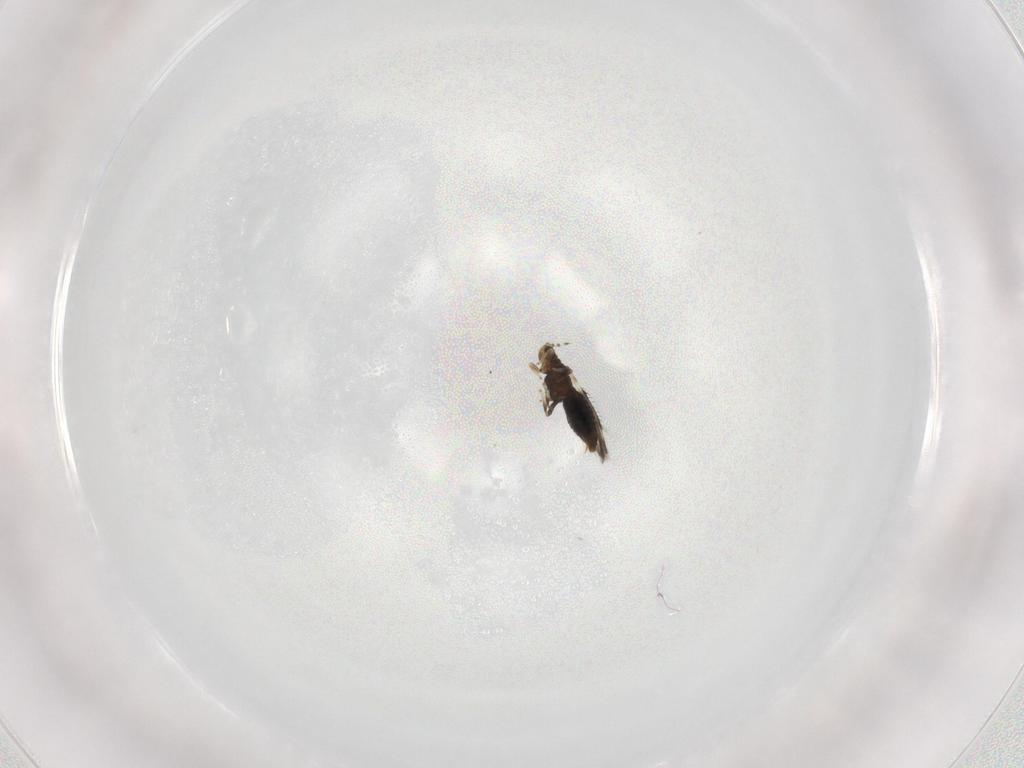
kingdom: Animalia
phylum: Arthropoda
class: Insecta
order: Thysanoptera
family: Thripidae
